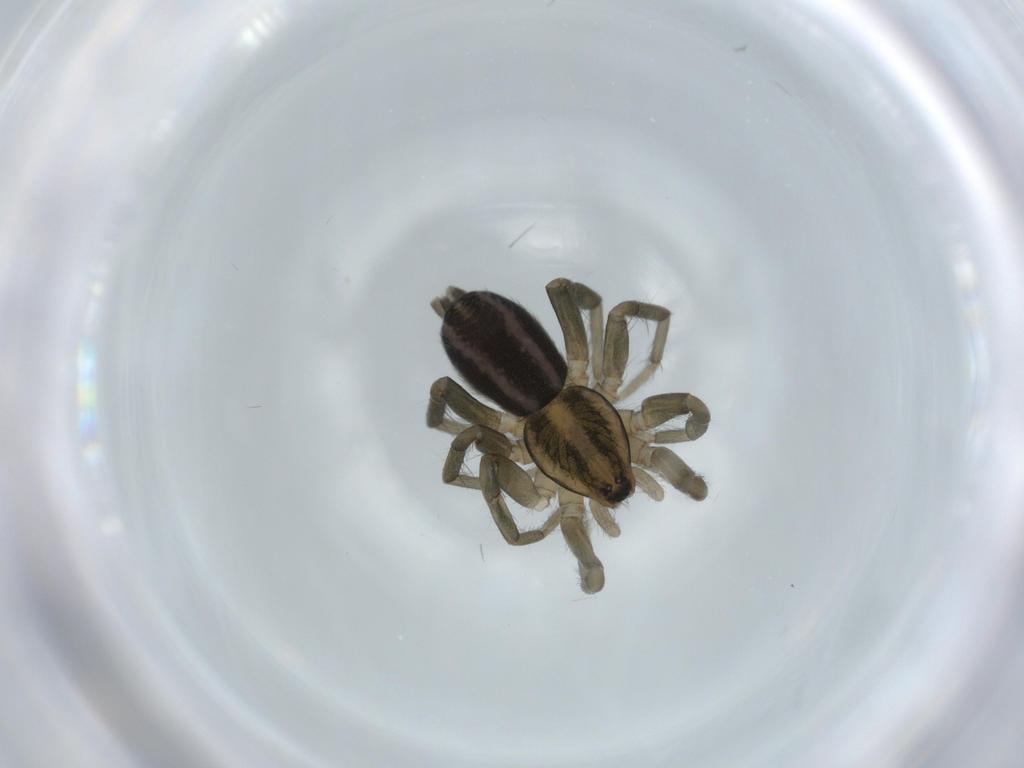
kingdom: Animalia
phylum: Arthropoda
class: Arachnida
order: Araneae
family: Gnaphosidae
